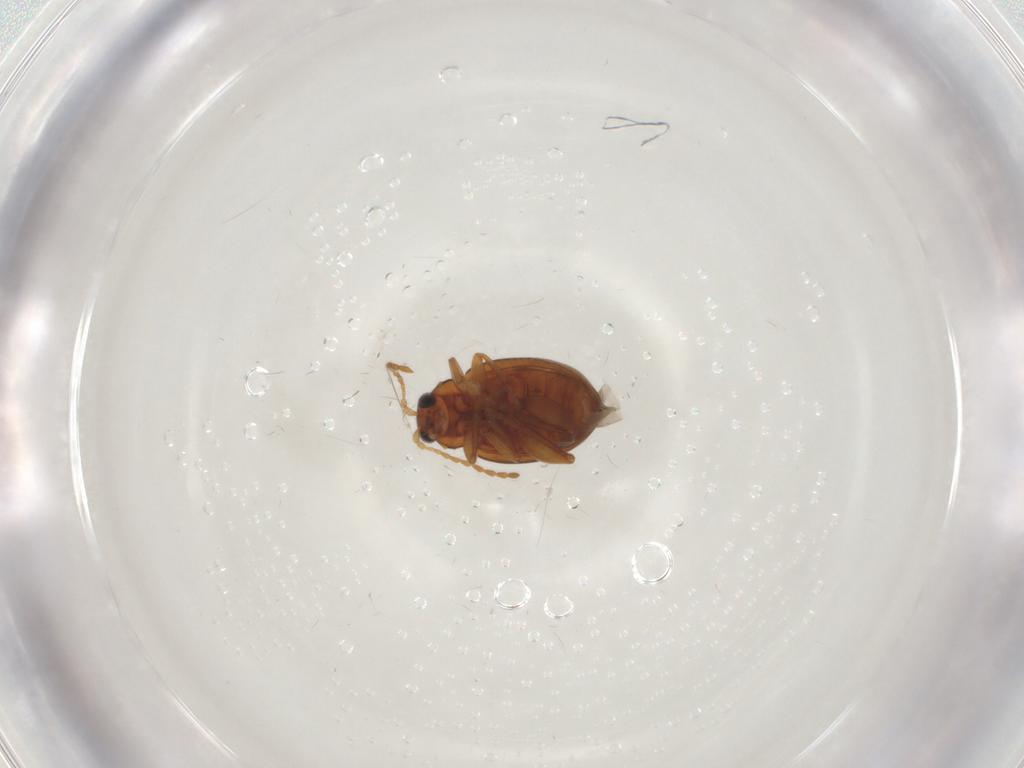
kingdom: Animalia
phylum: Arthropoda
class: Insecta
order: Coleoptera
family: Chrysomelidae
